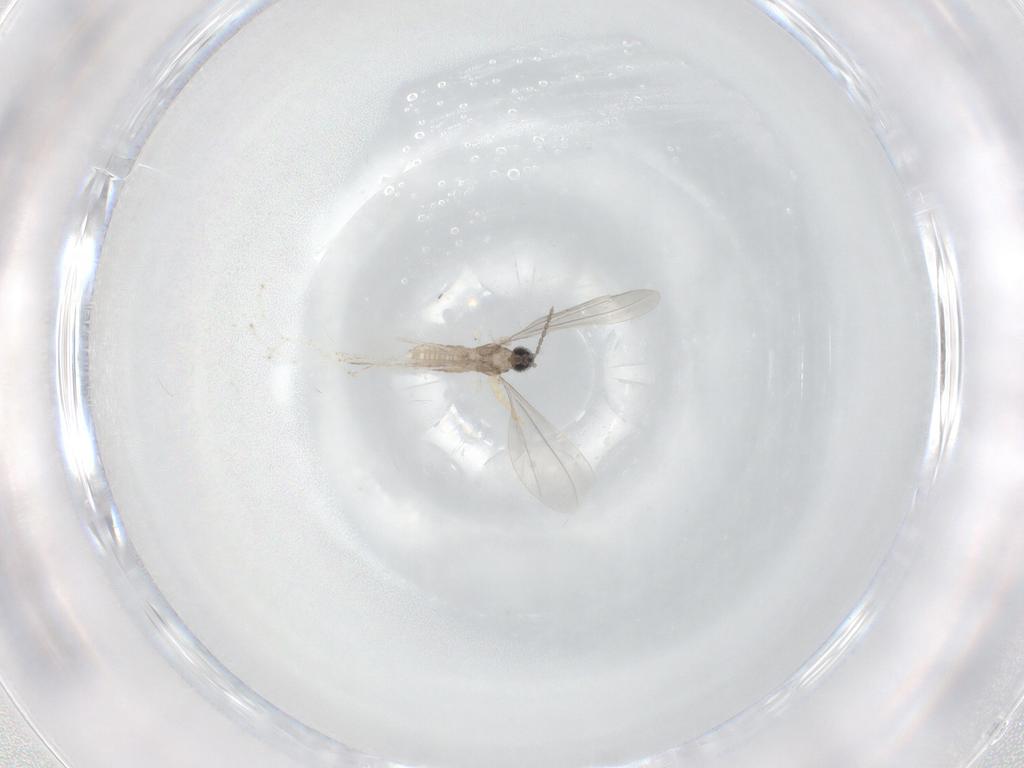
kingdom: Animalia
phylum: Arthropoda
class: Insecta
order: Diptera
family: Cecidomyiidae
